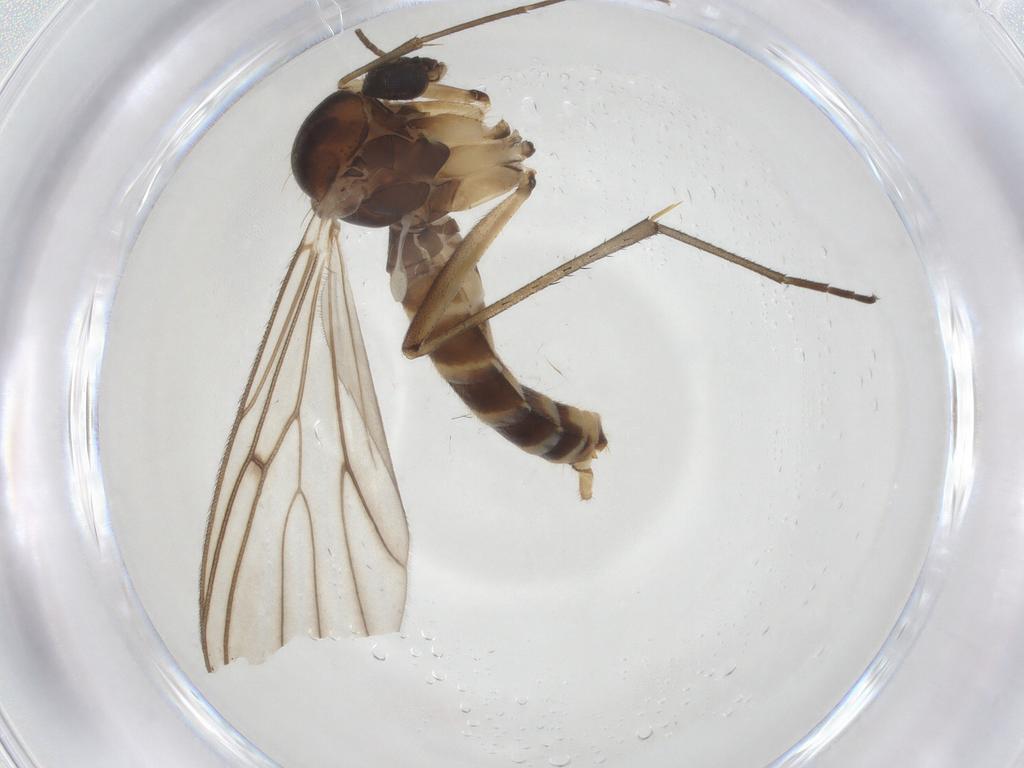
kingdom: Animalia
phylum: Arthropoda
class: Insecta
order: Diptera
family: Mycetophilidae
